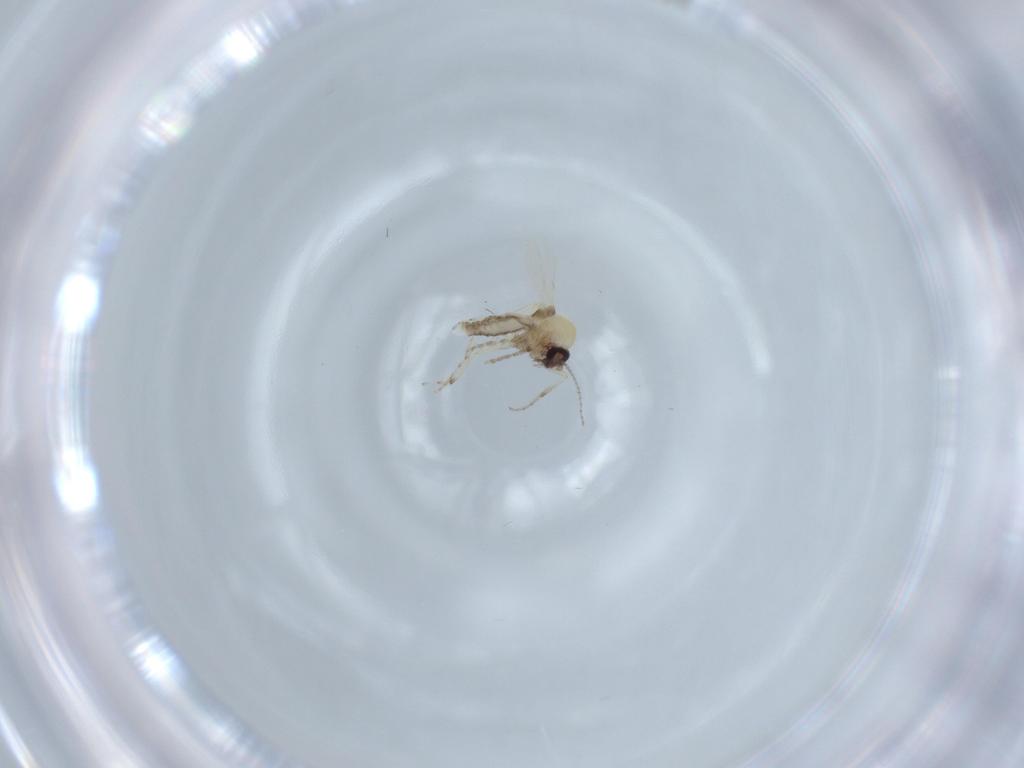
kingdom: Animalia
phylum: Arthropoda
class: Insecta
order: Diptera
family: Ceratopogonidae
